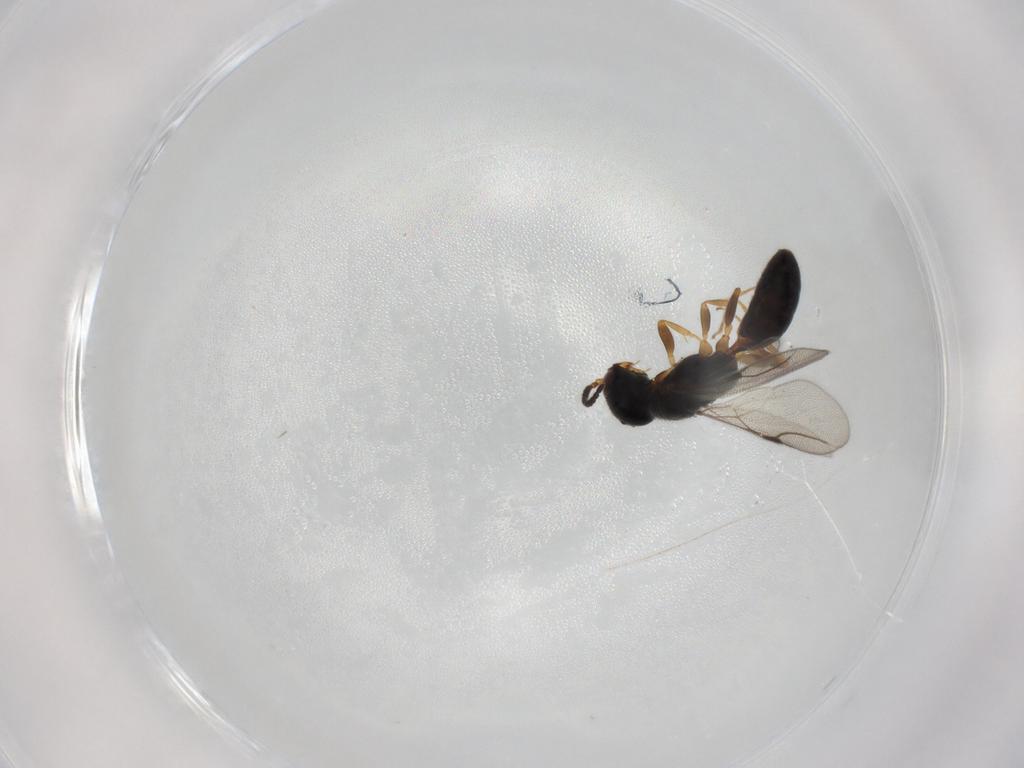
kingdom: Animalia
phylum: Arthropoda
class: Insecta
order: Hymenoptera
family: Bethylidae
